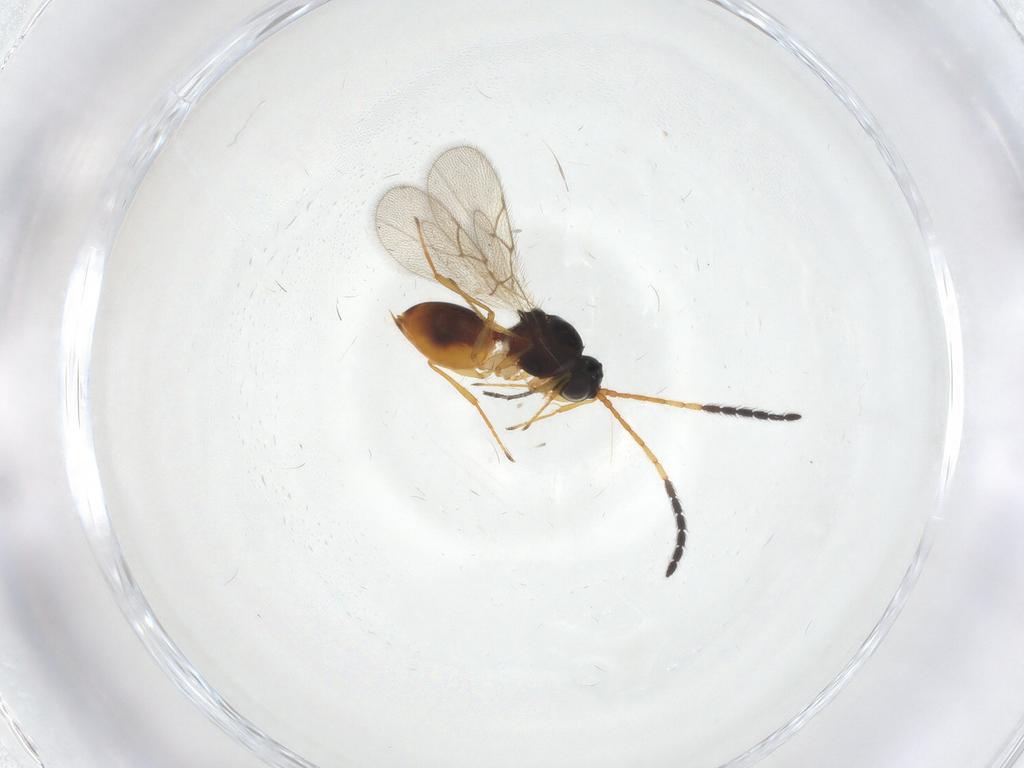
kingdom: Animalia
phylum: Arthropoda
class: Insecta
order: Hymenoptera
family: Figitidae
